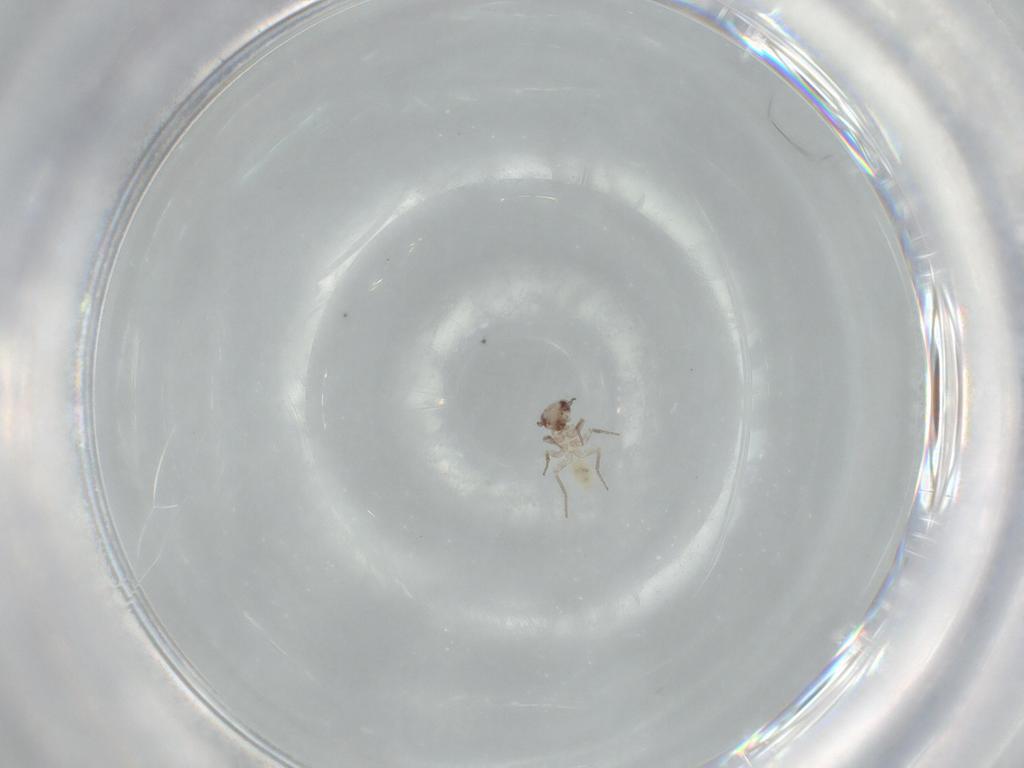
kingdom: Animalia
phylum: Arthropoda
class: Insecta
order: Psocodea
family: Lepidopsocidae
